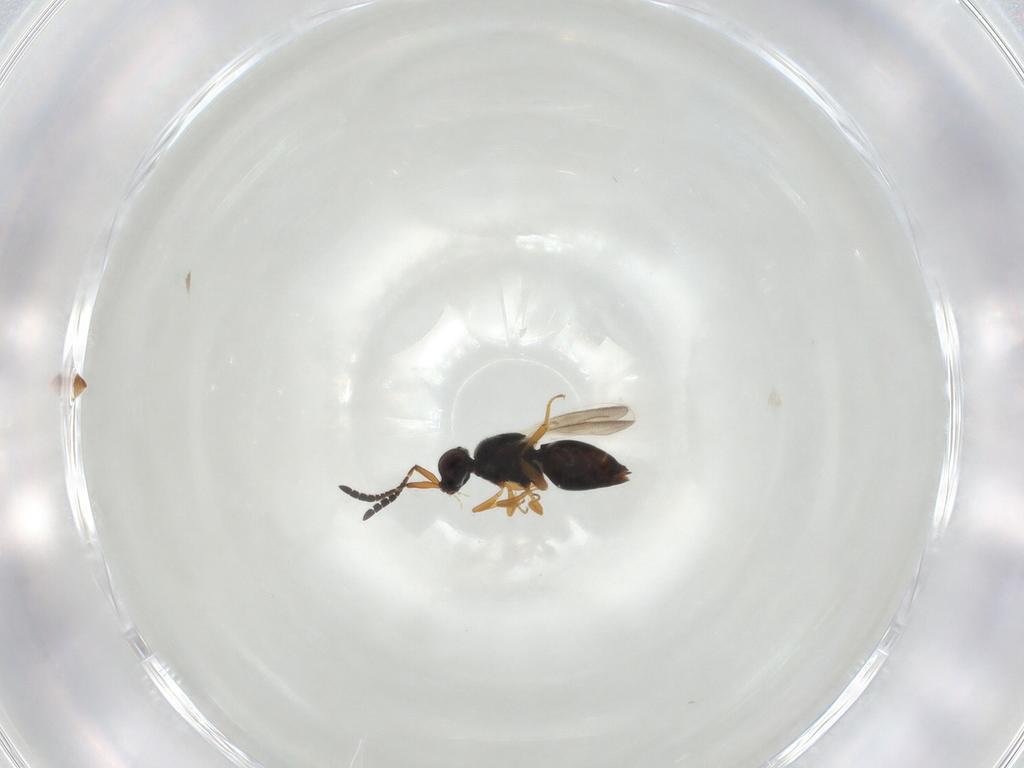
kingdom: Animalia
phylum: Arthropoda
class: Insecta
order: Hymenoptera
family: Ceraphronidae
